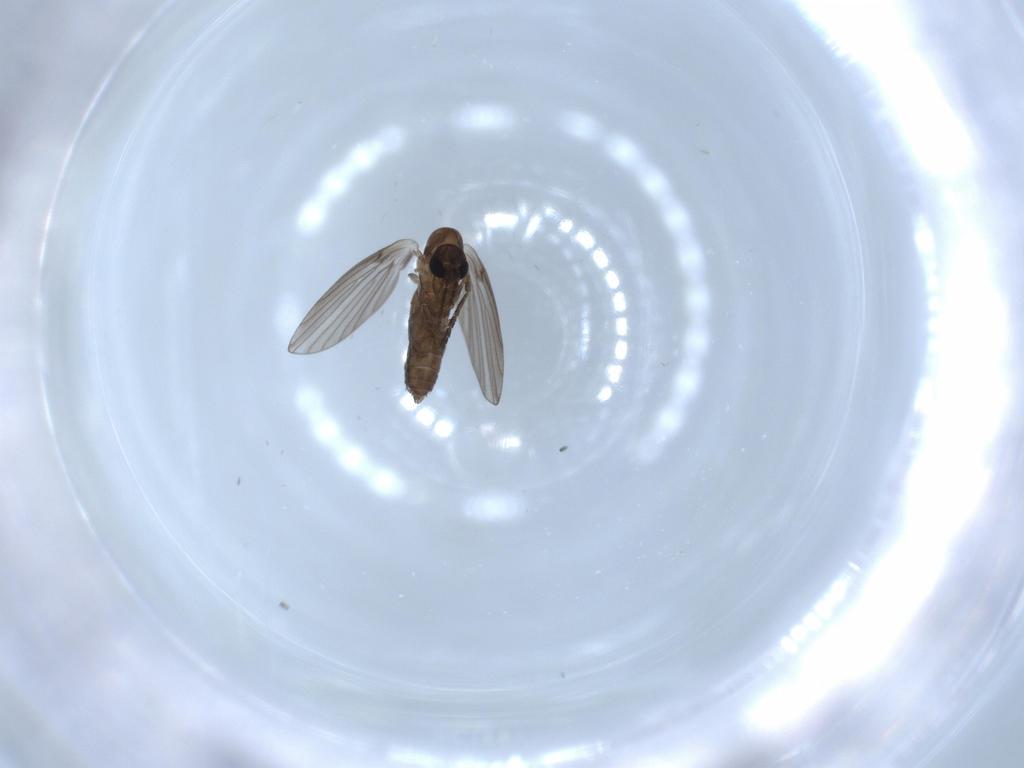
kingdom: Animalia
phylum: Arthropoda
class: Insecta
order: Diptera
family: Psychodidae
